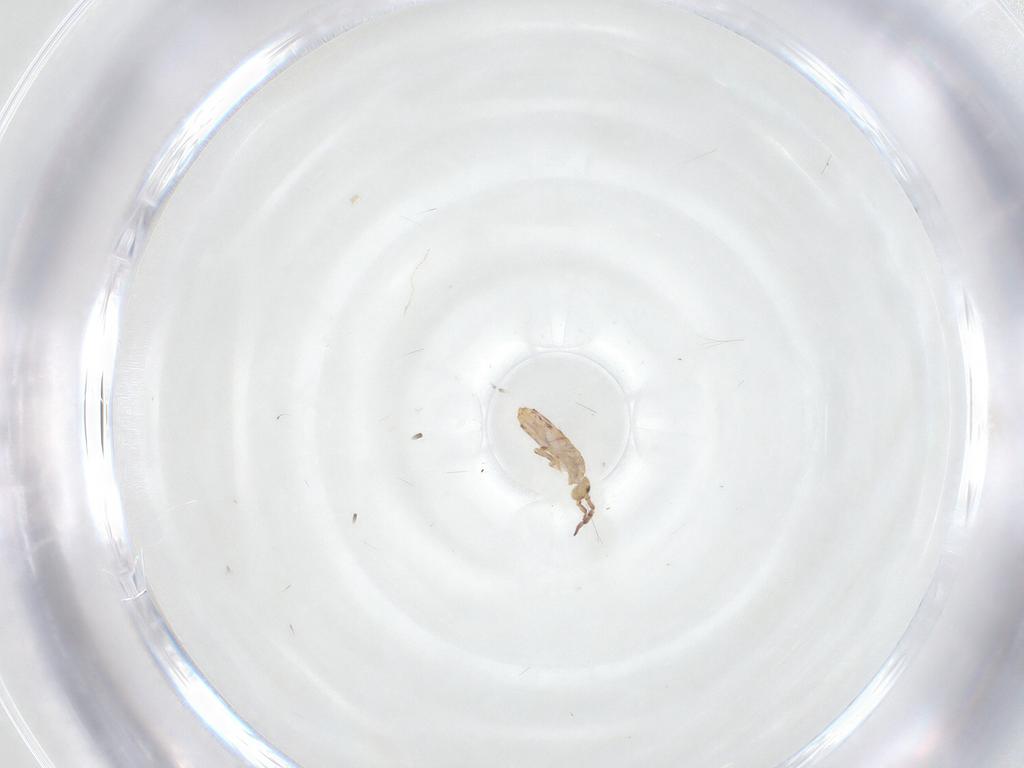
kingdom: Animalia
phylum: Arthropoda
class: Collembola
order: Entomobryomorpha
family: Entomobryidae
